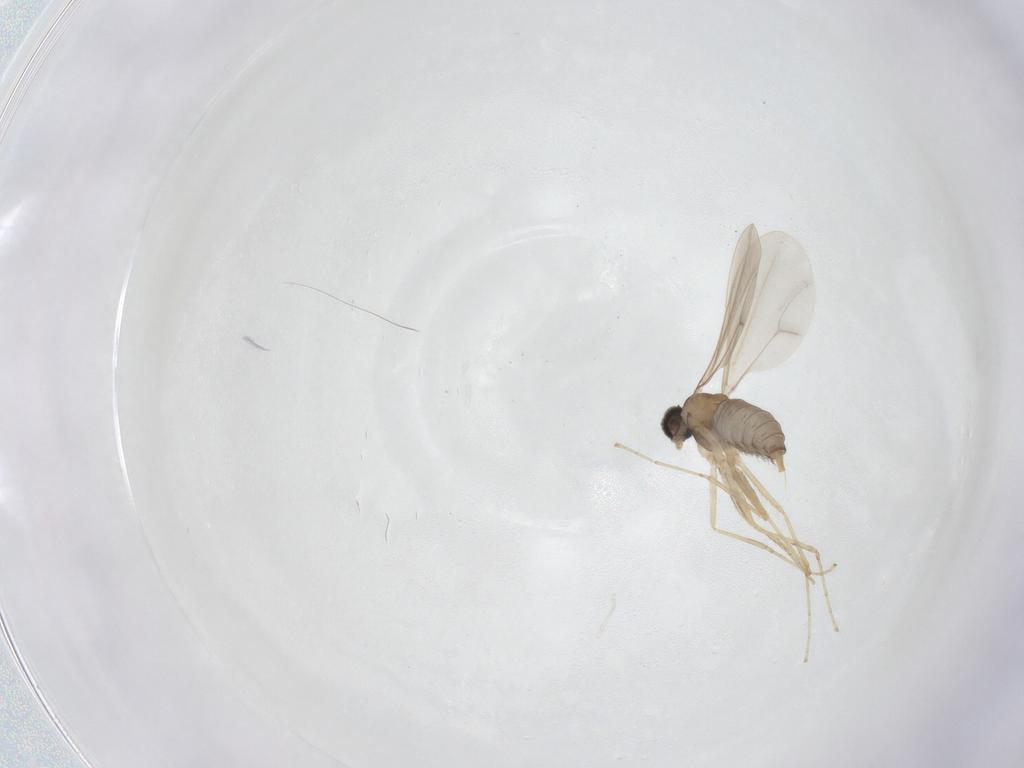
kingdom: Animalia
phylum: Arthropoda
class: Insecta
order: Diptera
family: Cecidomyiidae
